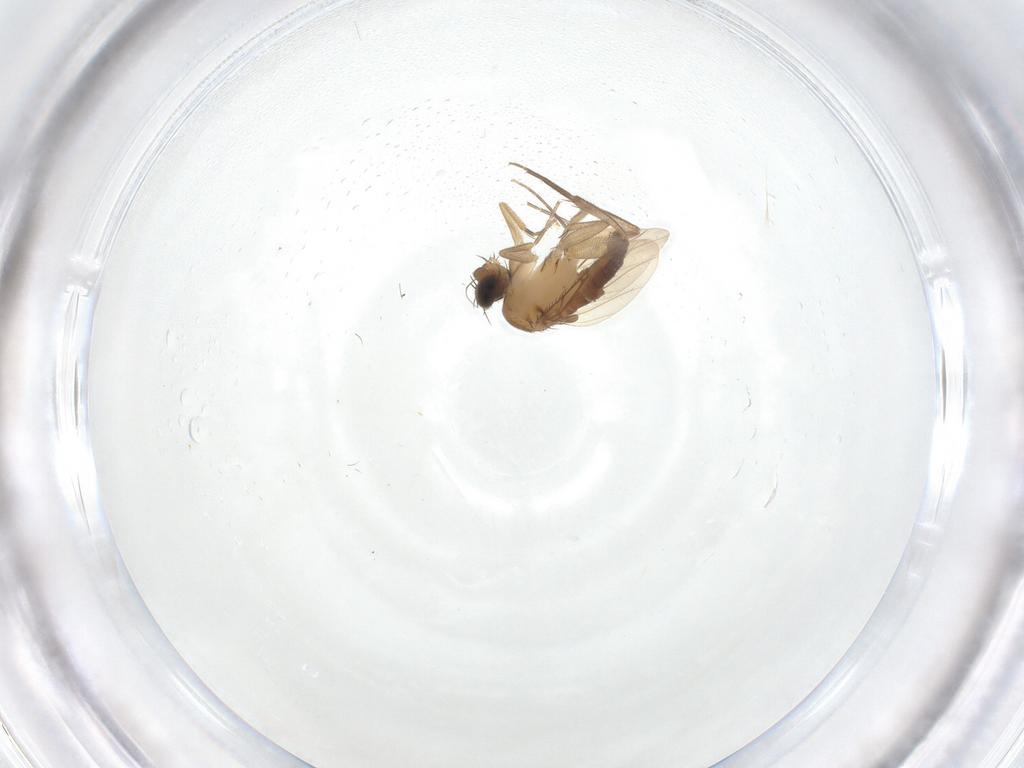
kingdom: Animalia
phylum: Arthropoda
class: Insecta
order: Diptera
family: Phoridae
